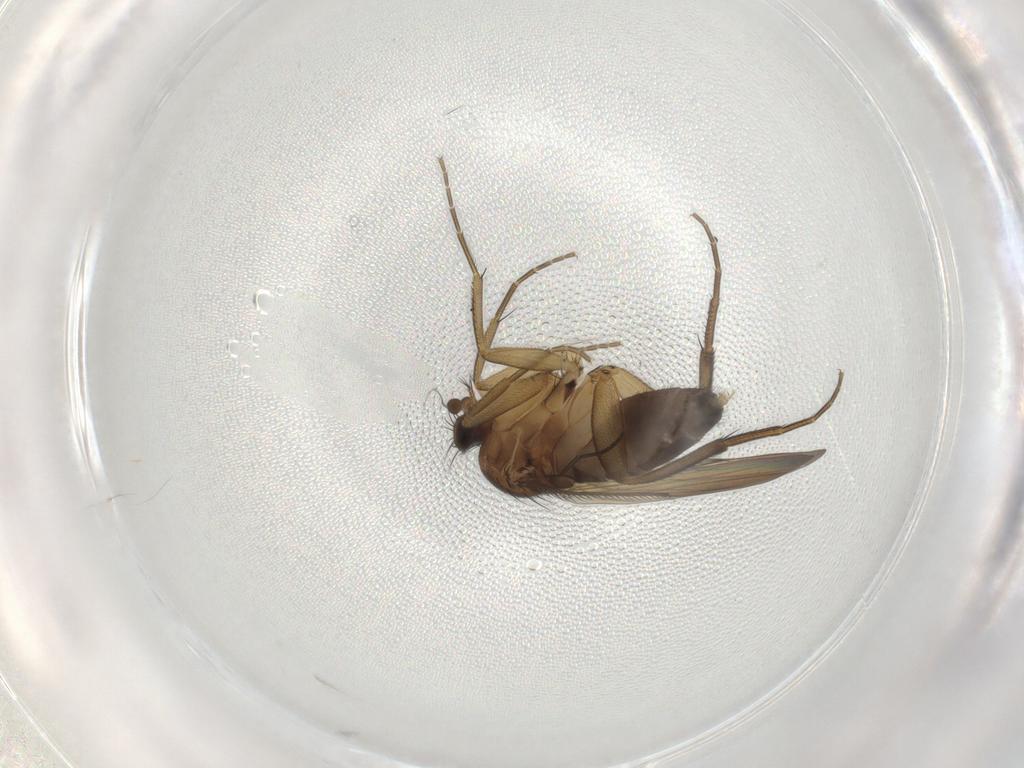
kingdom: Animalia
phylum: Arthropoda
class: Insecta
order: Diptera
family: Phoridae
